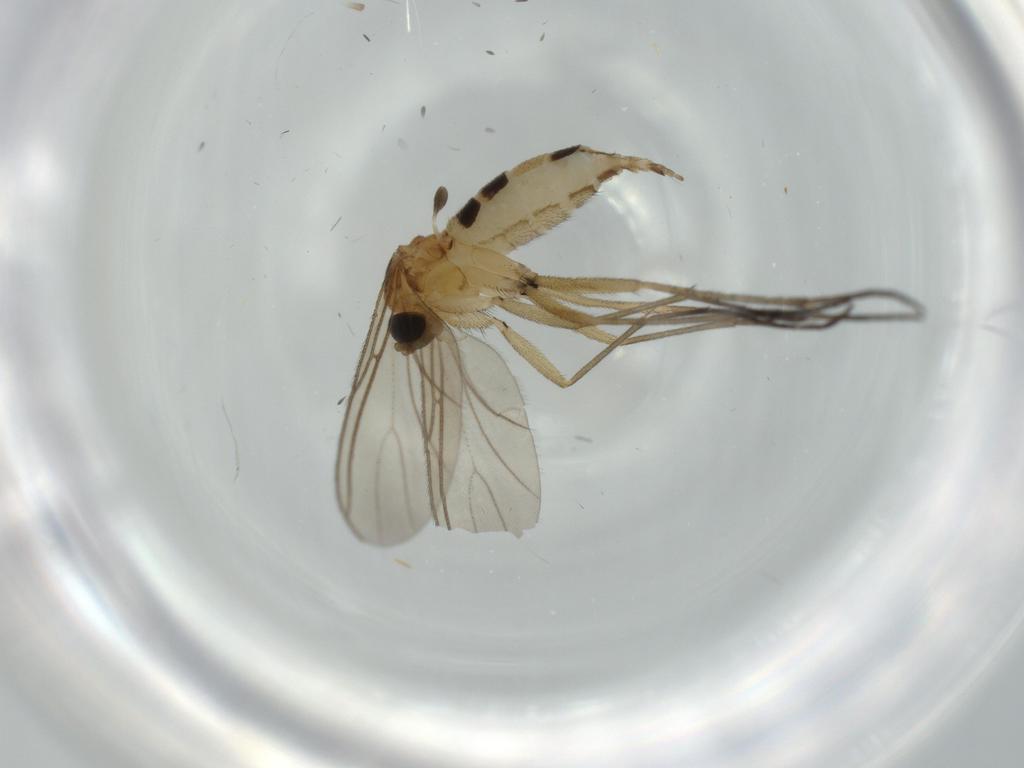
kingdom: Animalia
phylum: Arthropoda
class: Insecta
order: Diptera
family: Sciaridae
